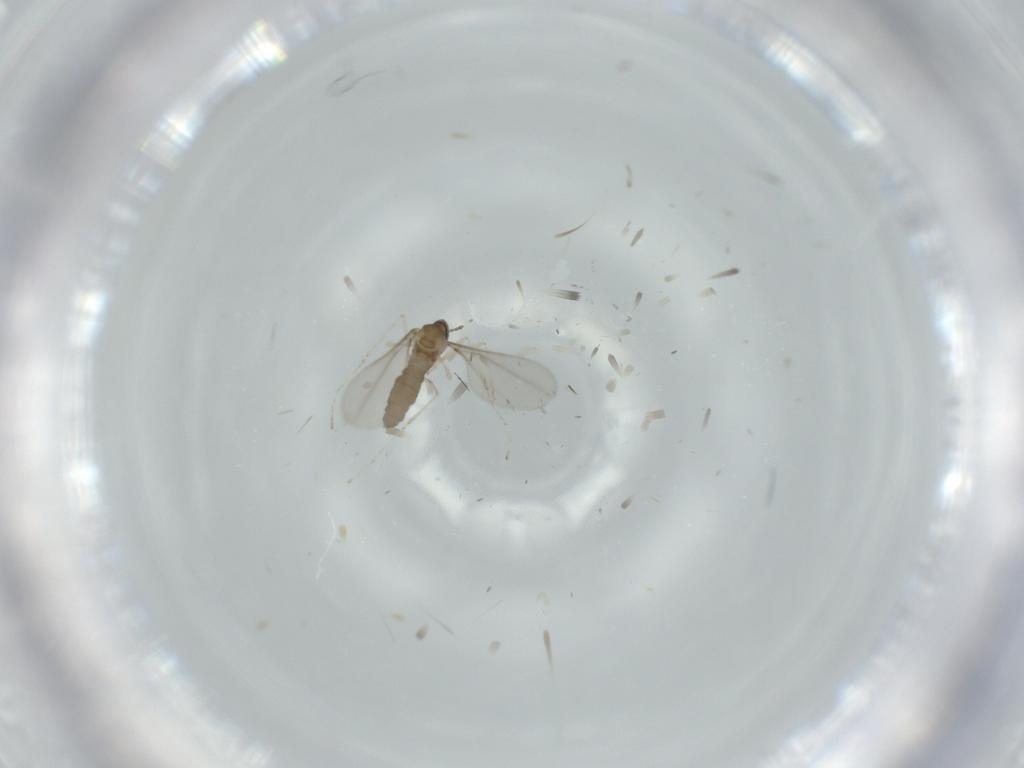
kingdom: Animalia
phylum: Arthropoda
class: Insecta
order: Diptera
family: Cecidomyiidae
